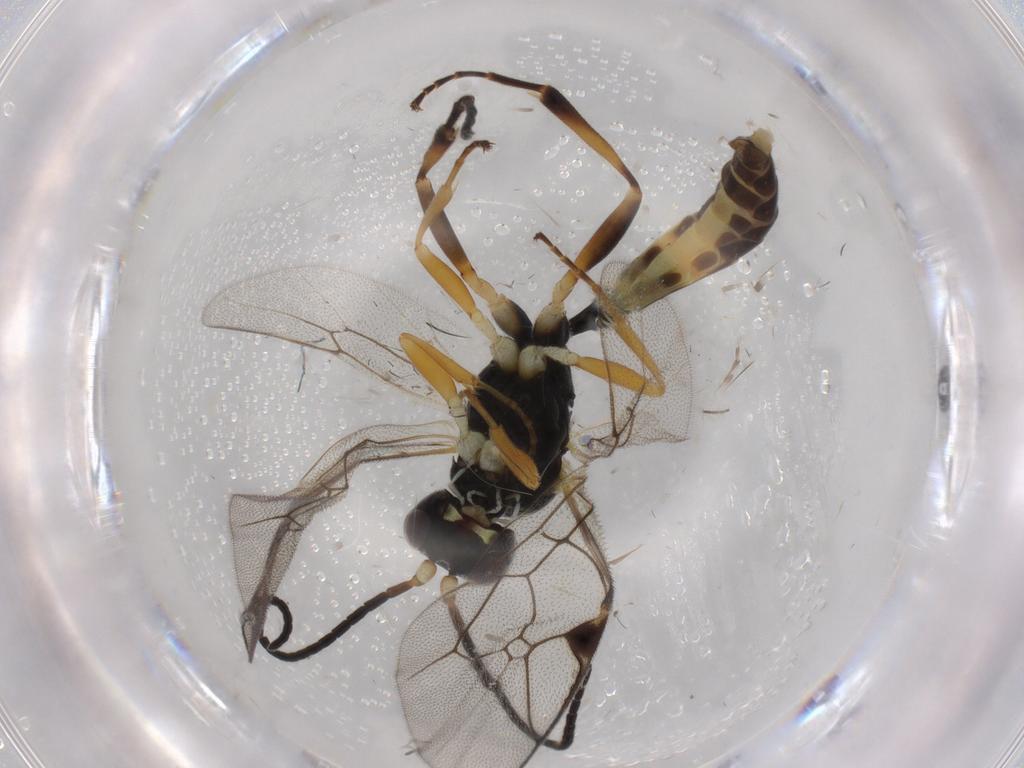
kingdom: Animalia
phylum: Arthropoda
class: Insecta
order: Hymenoptera
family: Ichneumonidae
